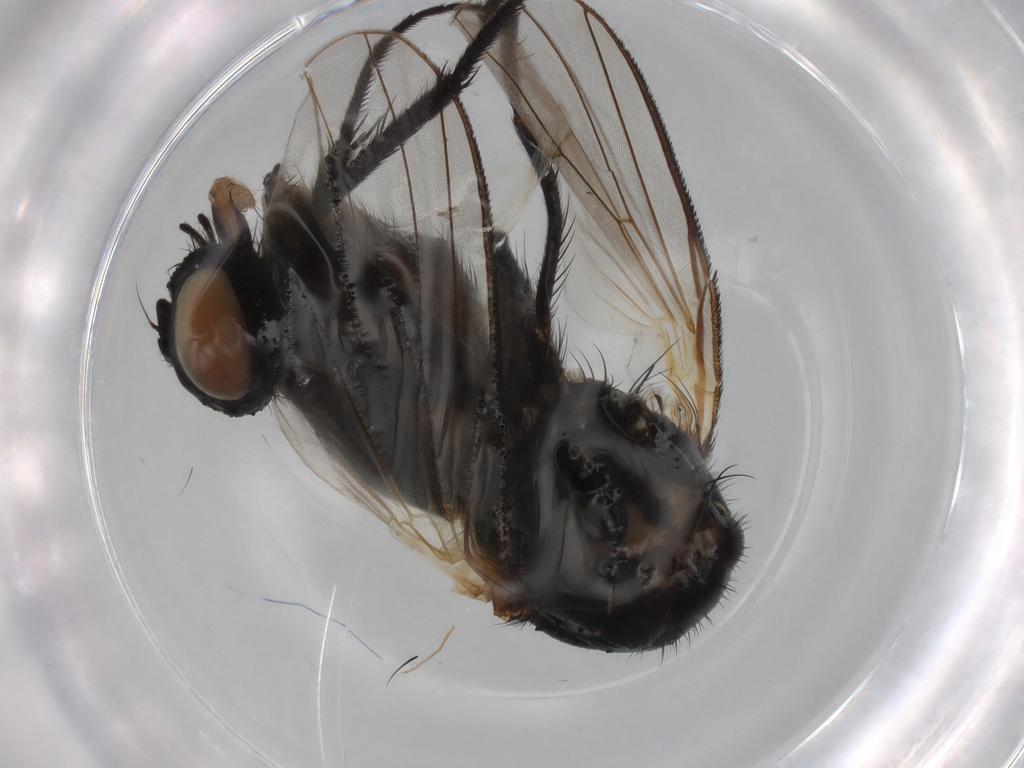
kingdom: Animalia
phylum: Arthropoda
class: Insecta
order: Diptera
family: Muscidae
